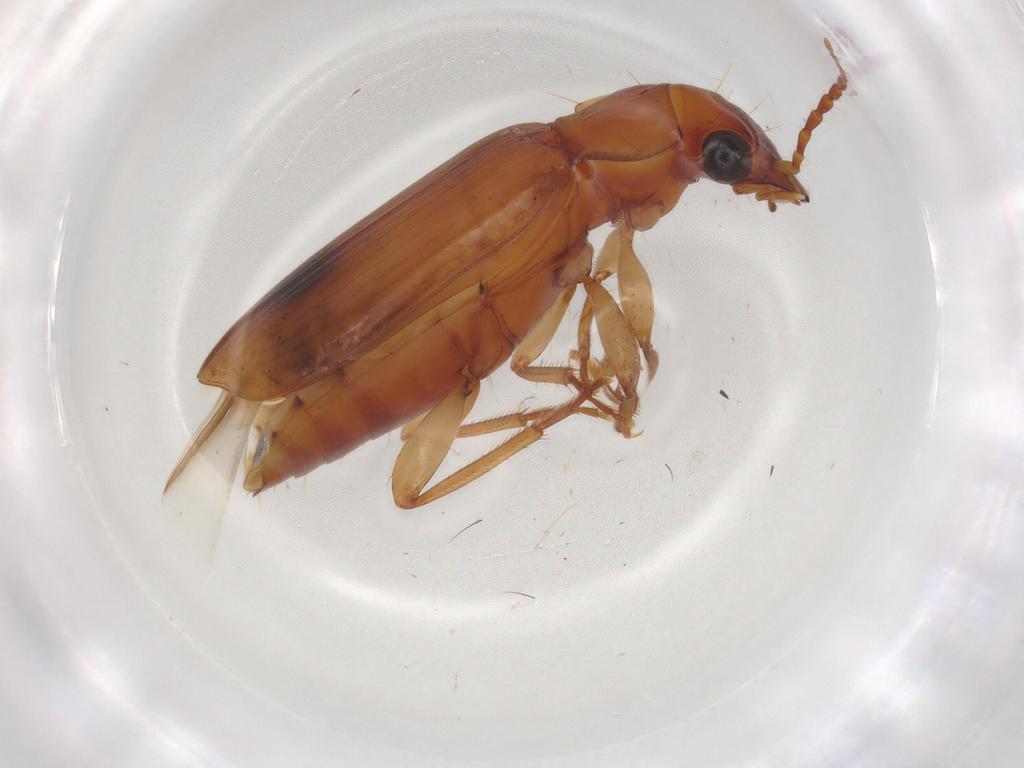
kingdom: Animalia
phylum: Arthropoda
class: Insecta
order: Coleoptera
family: Carabidae
